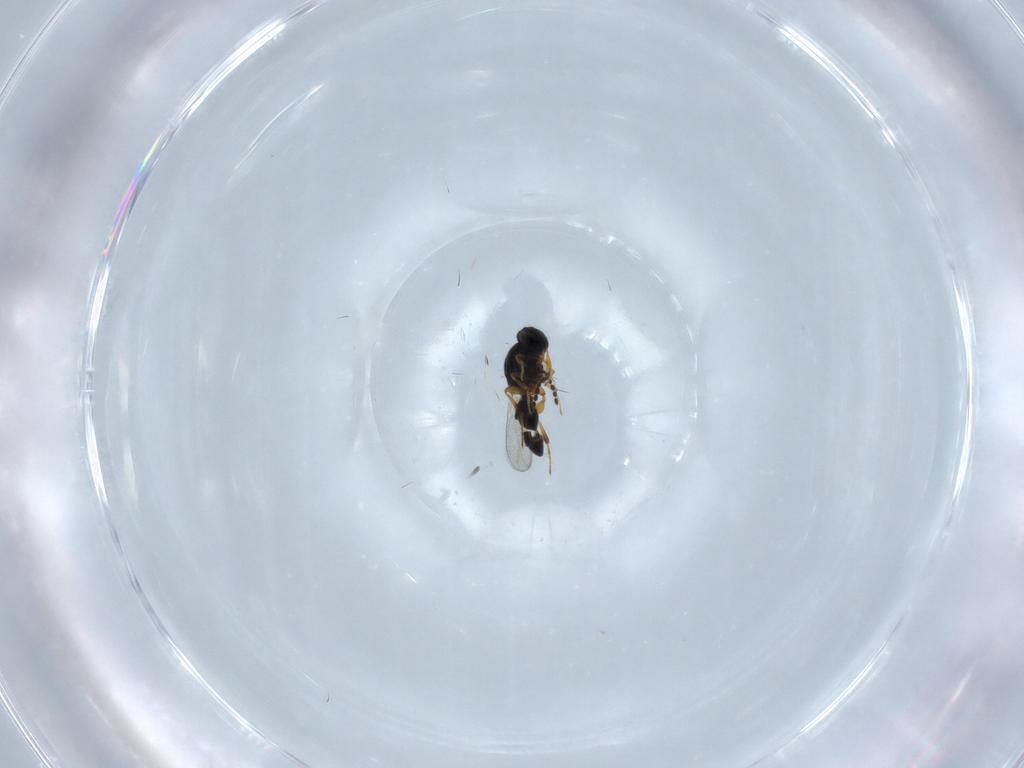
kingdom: Animalia
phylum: Arthropoda
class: Insecta
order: Hymenoptera
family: Platygastridae
